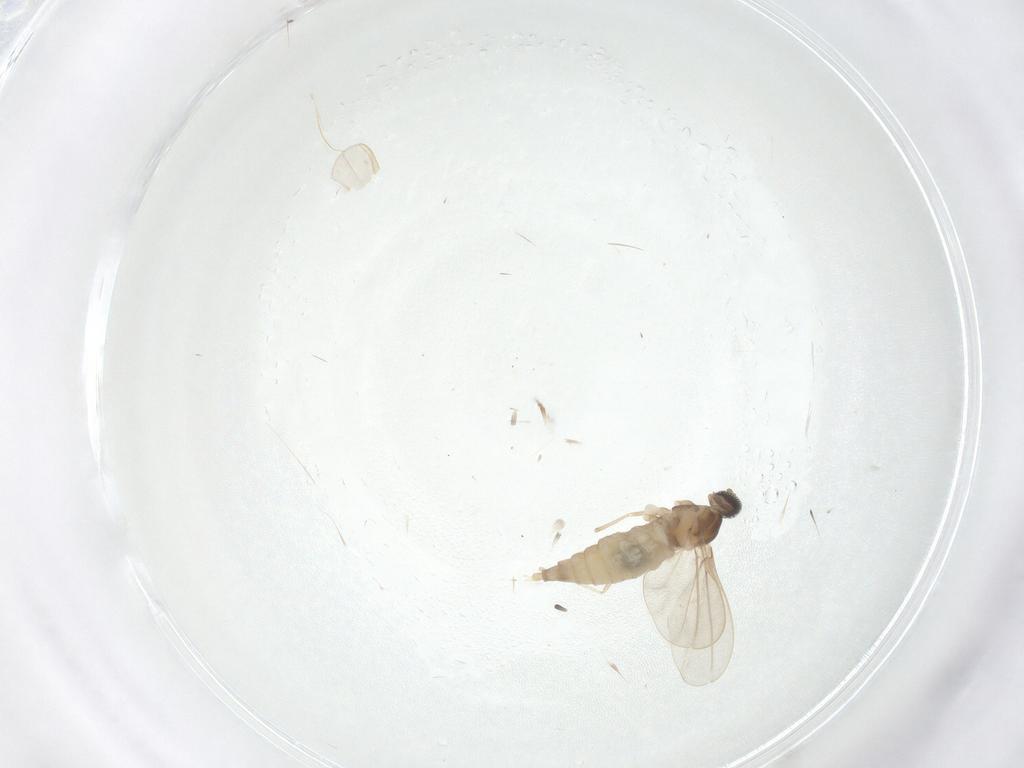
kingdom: Animalia
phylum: Arthropoda
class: Insecta
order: Diptera
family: Cecidomyiidae
